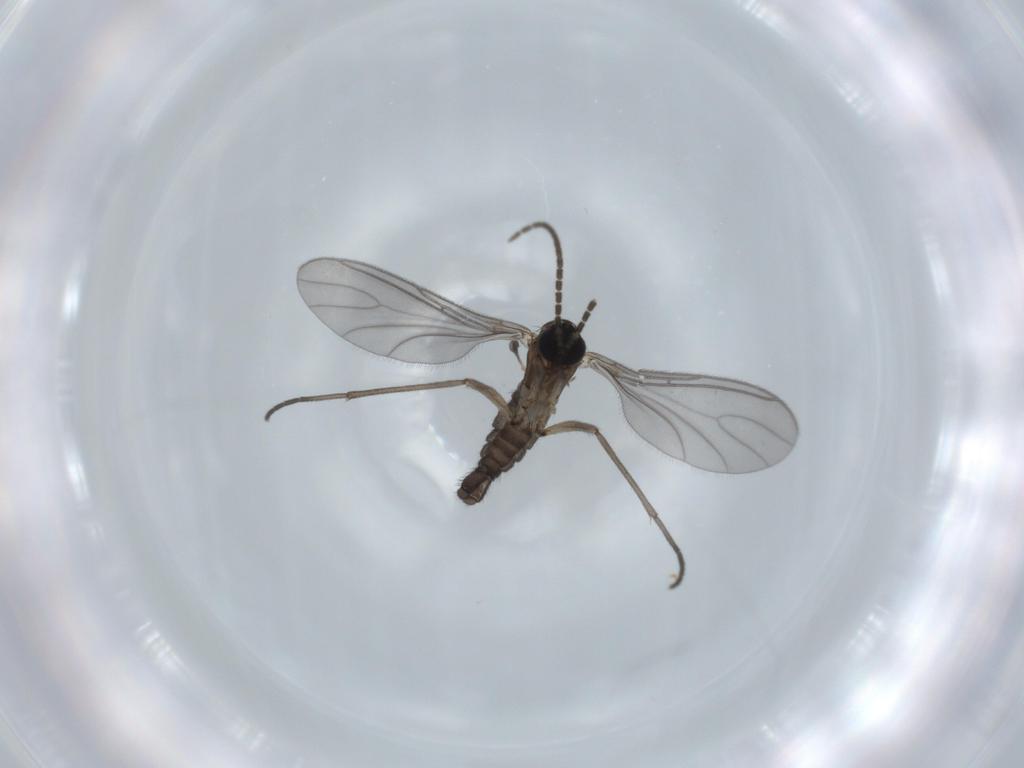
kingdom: Animalia
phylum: Arthropoda
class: Insecta
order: Diptera
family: Sciaridae
